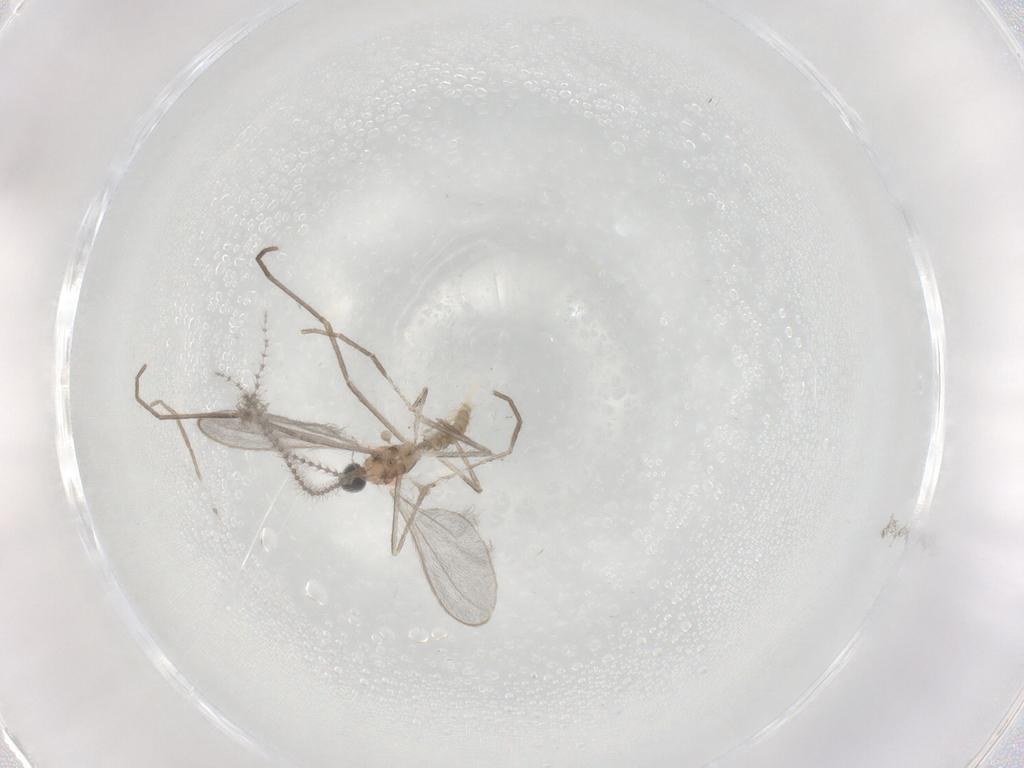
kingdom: Animalia
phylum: Arthropoda
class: Insecta
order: Diptera
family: Cecidomyiidae
